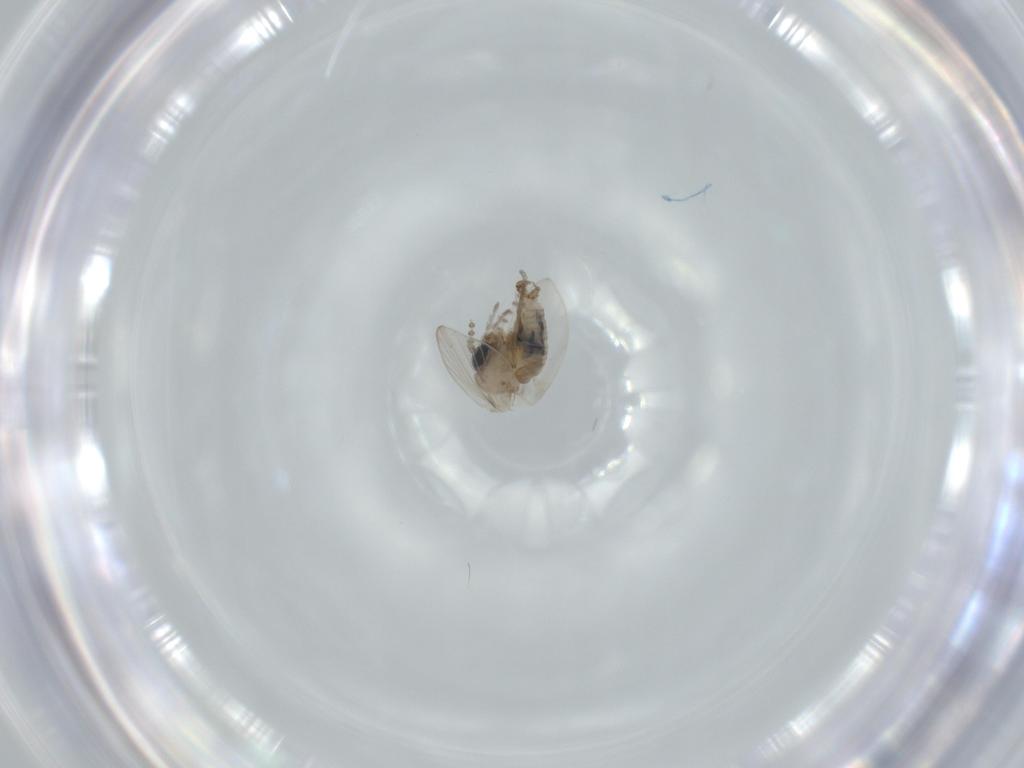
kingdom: Animalia
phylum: Arthropoda
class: Insecta
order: Diptera
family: Psychodidae
